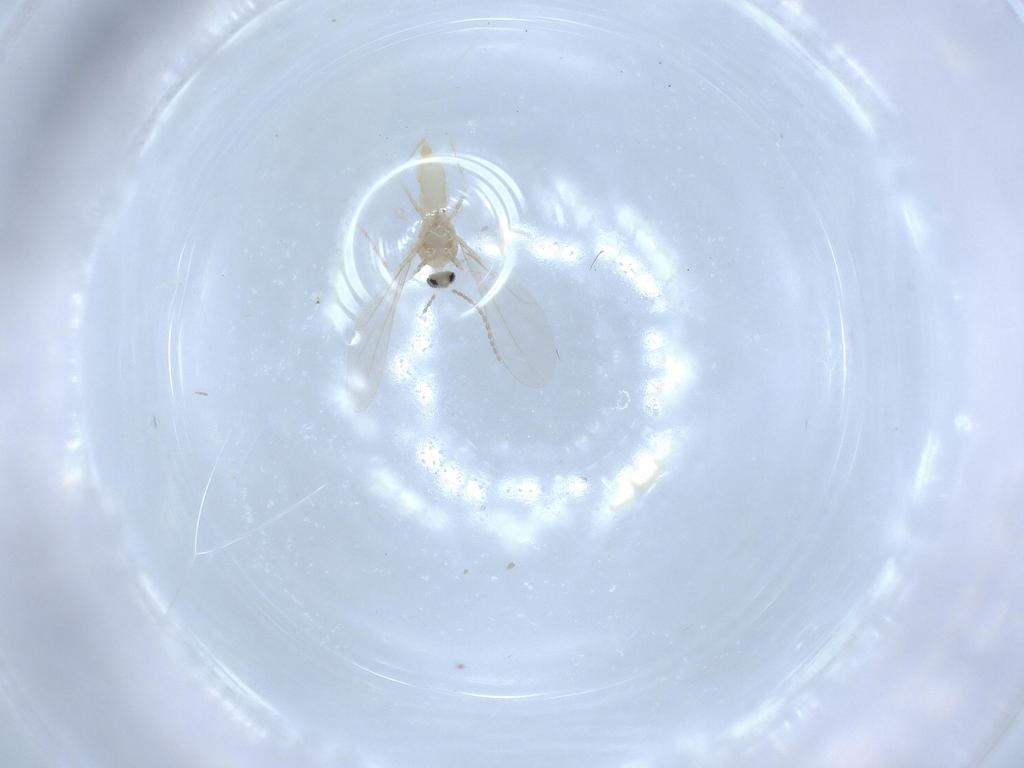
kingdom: Animalia
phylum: Arthropoda
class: Insecta
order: Diptera
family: Cecidomyiidae
